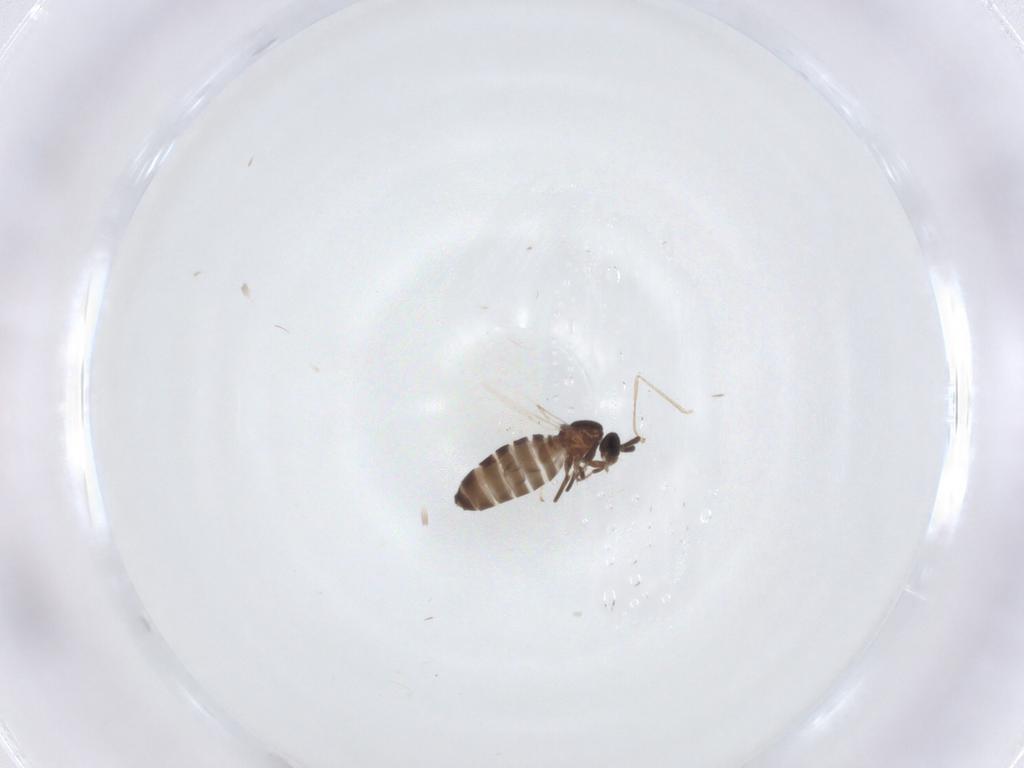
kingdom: Animalia
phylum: Arthropoda
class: Insecta
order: Diptera
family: Scatopsidae
